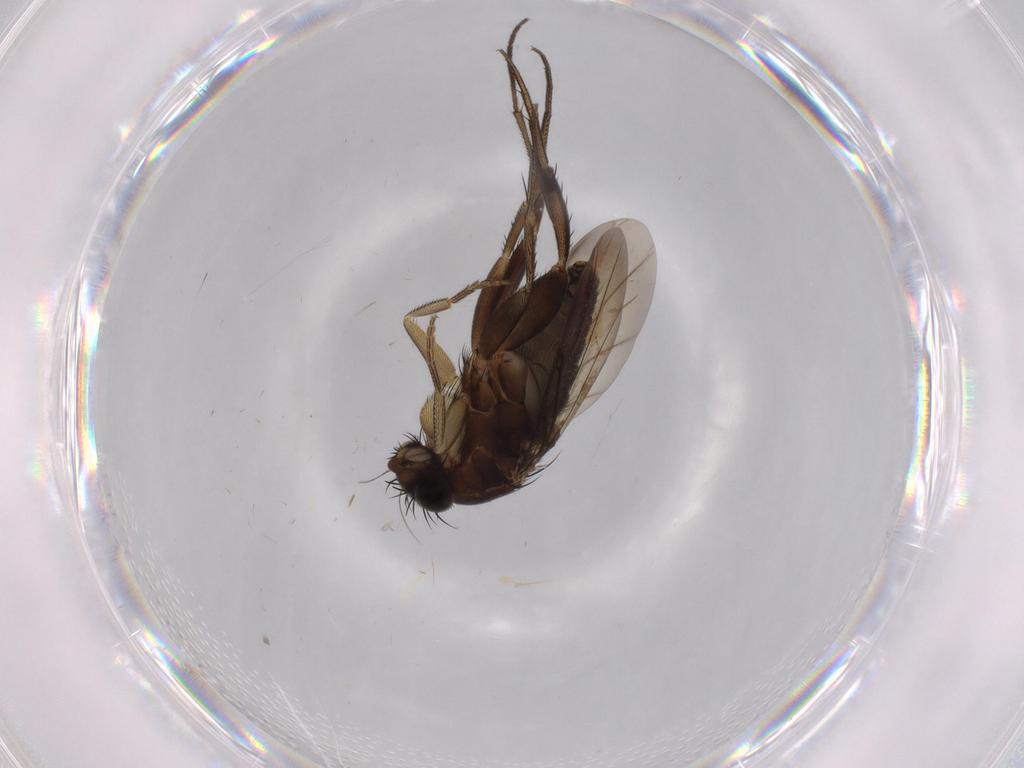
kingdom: Animalia
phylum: Arthropoda
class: Insecta
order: Diptera
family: Phoridae
